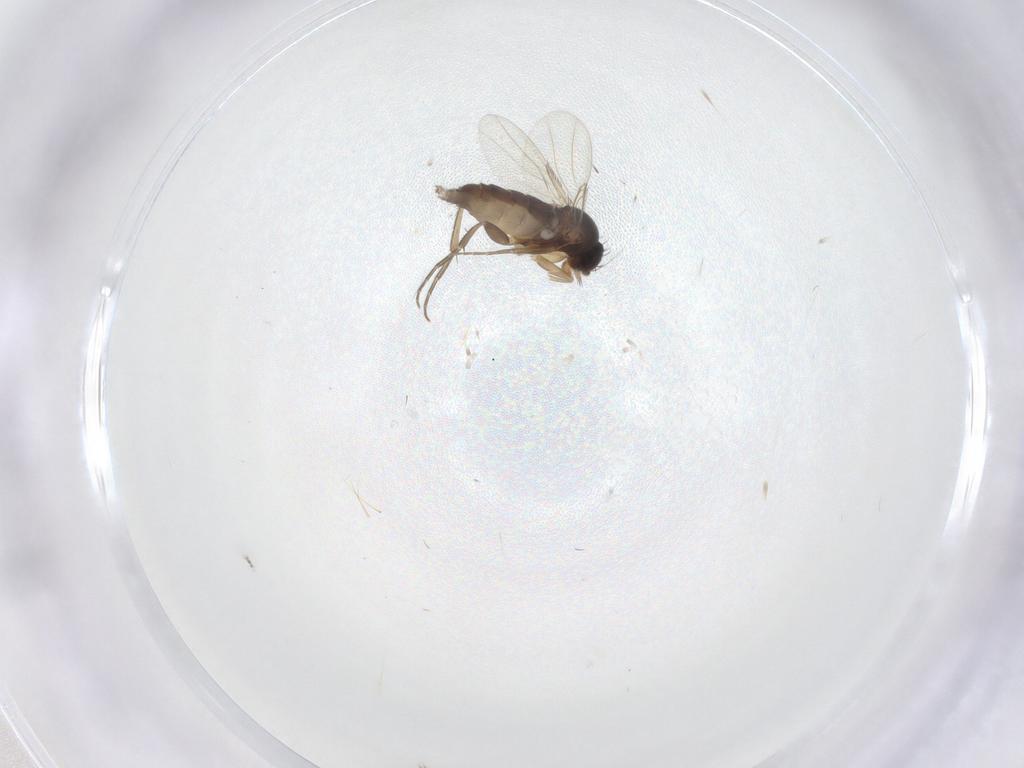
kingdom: Animalia
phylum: Arthropoda
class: Insecta
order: Diptera
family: Phoridae
